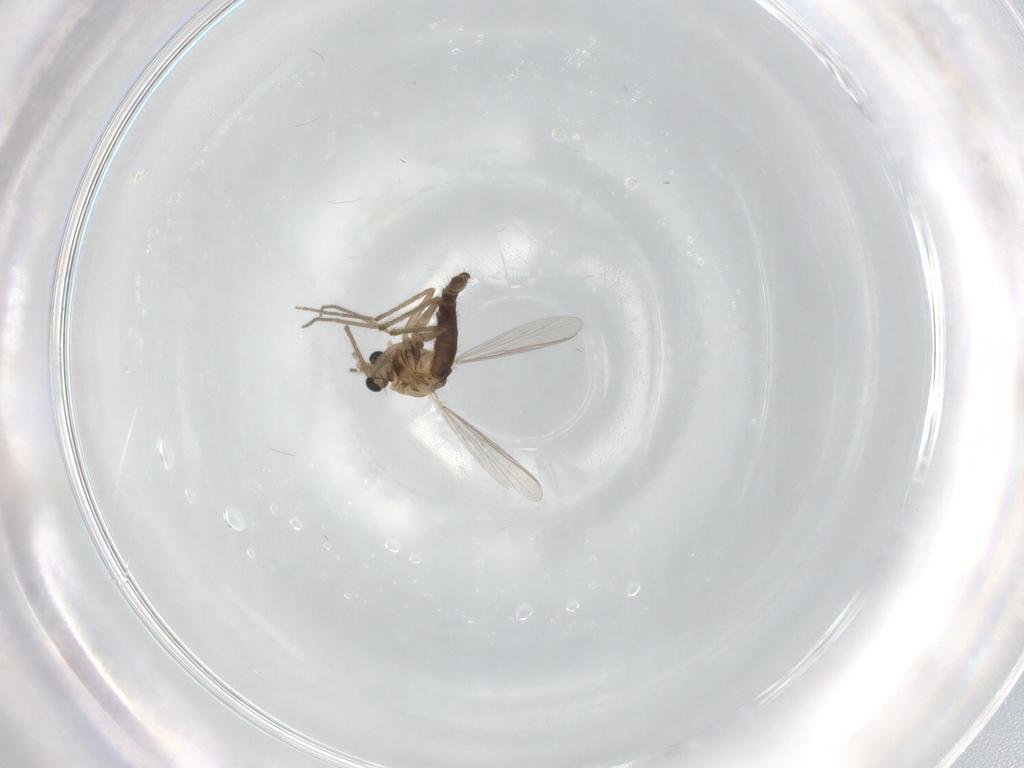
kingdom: Animalia
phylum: Arthropoda
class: Insecta
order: Diptera
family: Chironomidae
